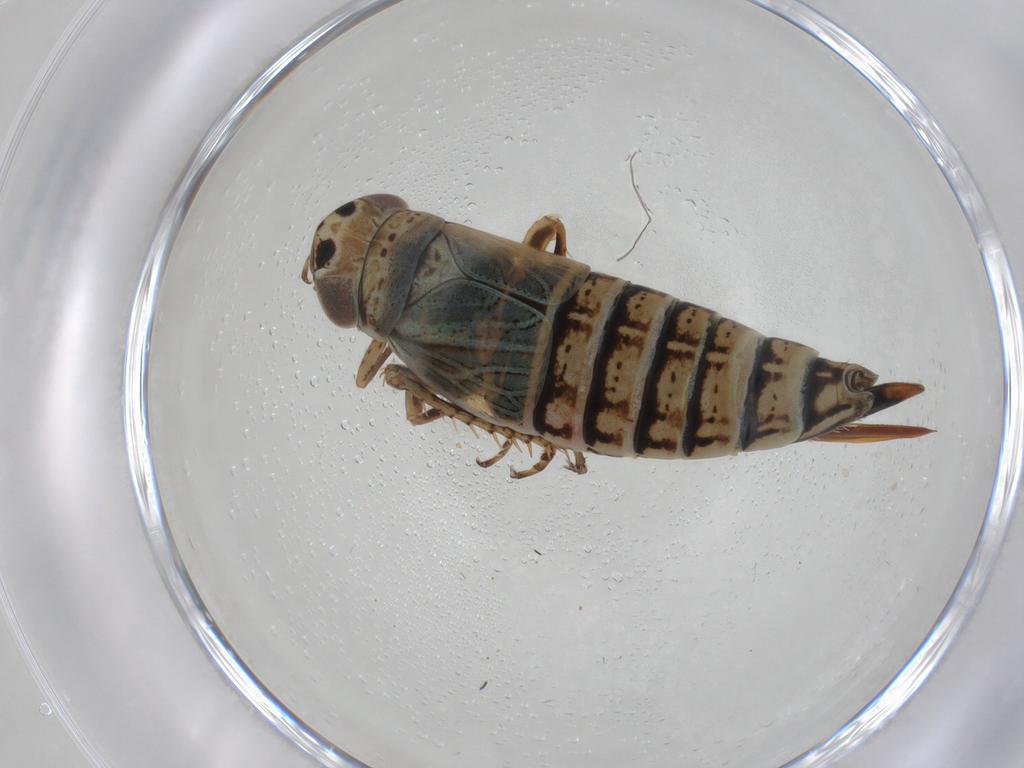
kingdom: Animalia
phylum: Arthropoda
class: Insecta
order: Hemiptera
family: Cicadellidae
